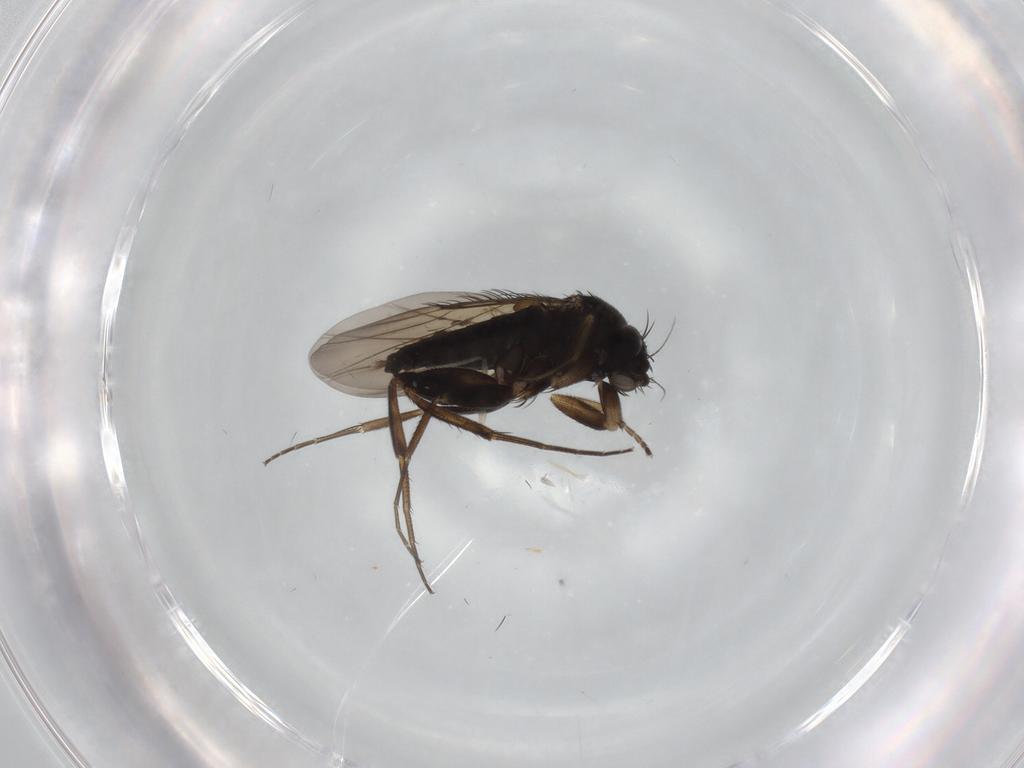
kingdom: Animalia
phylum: Arthropoda
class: Insecta
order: Diptera
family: Phoridae
